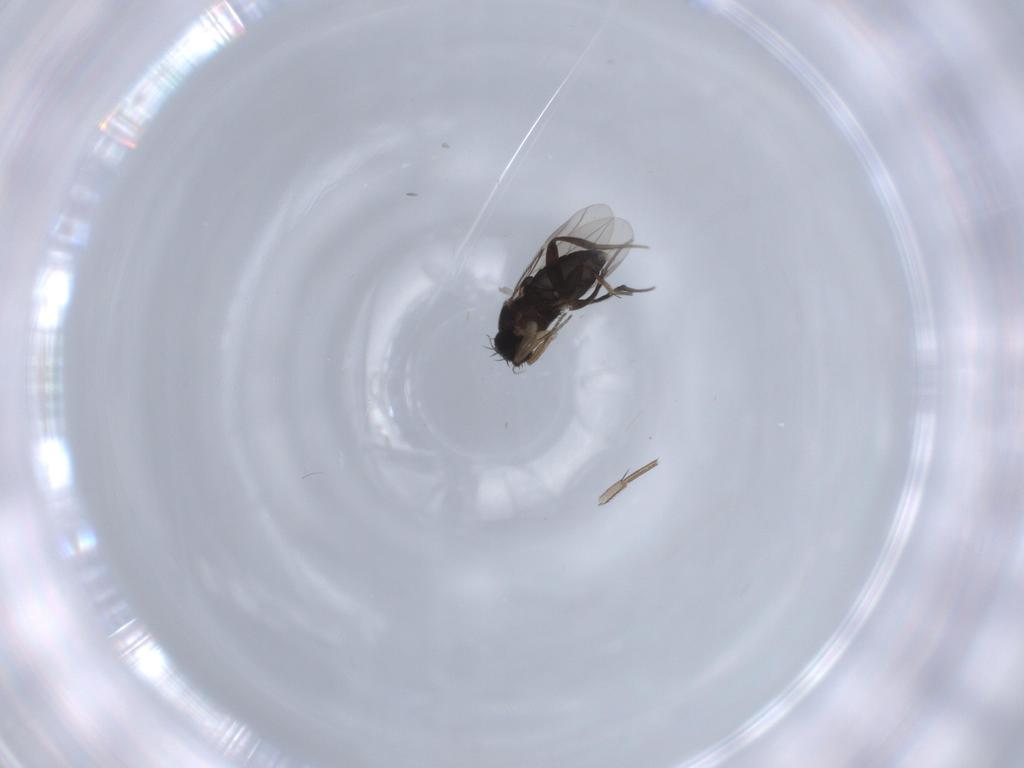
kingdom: Animalia
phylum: Arthropoda
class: Insecta
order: Diptera
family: Phoridae
